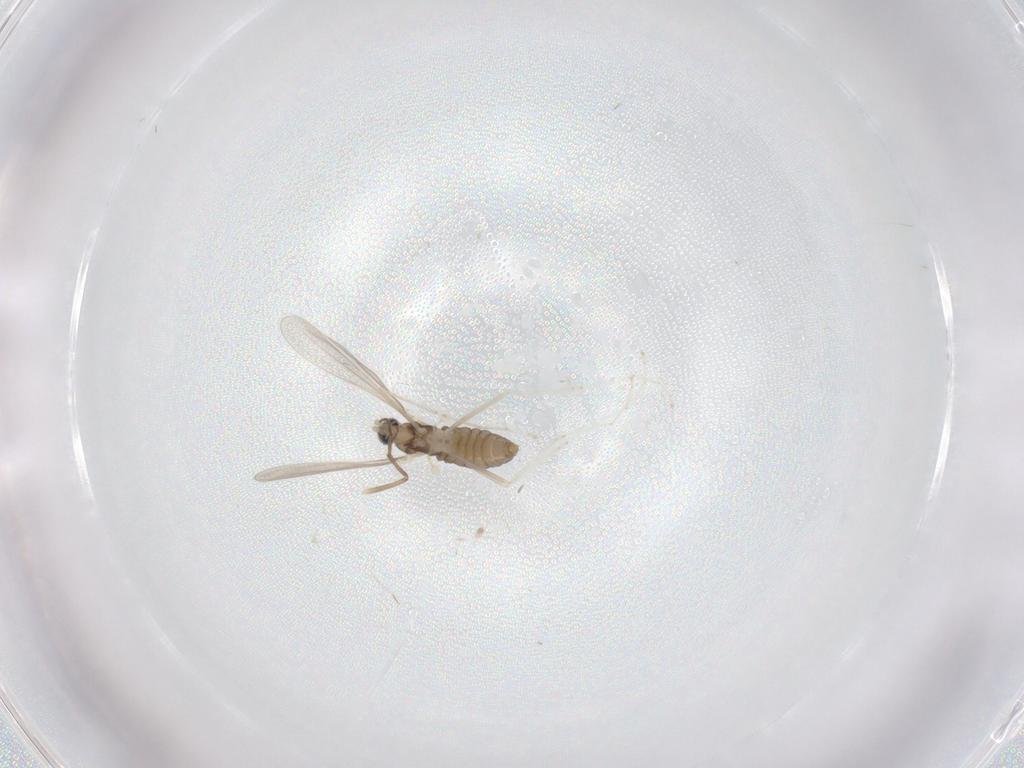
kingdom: Animalia
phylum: Arthropoda
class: Insecta
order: Diptera
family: Cecidomyiidae
